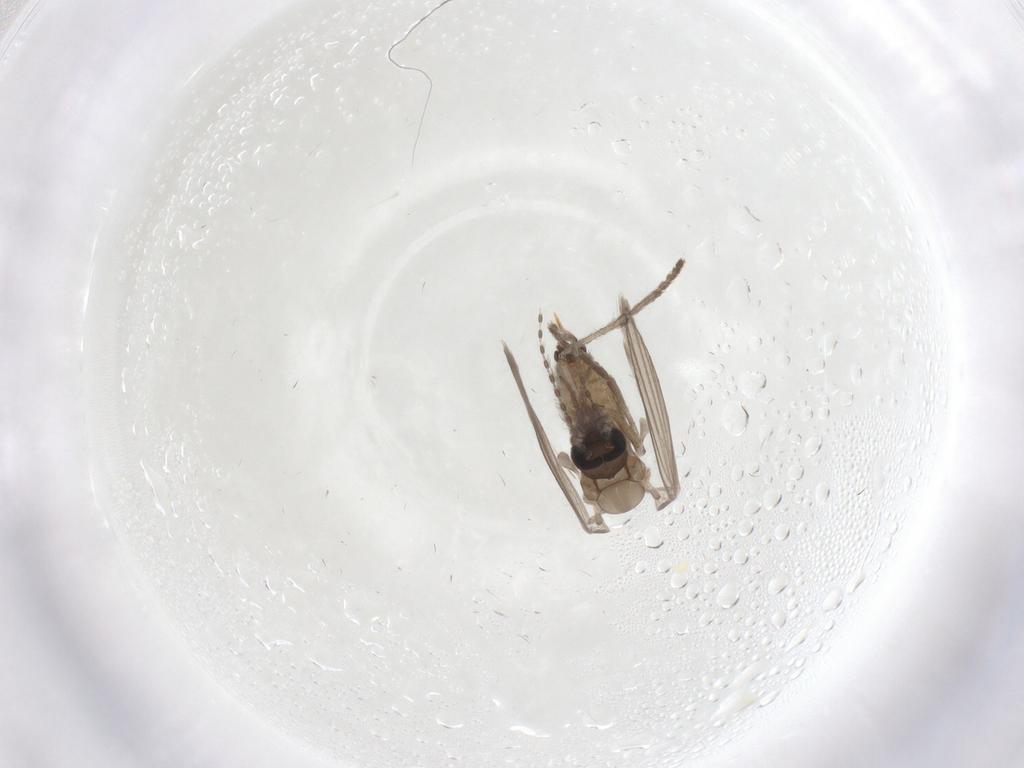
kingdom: Animalia
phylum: Arthropoda
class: Insecta
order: Diptera
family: Psychodidae
